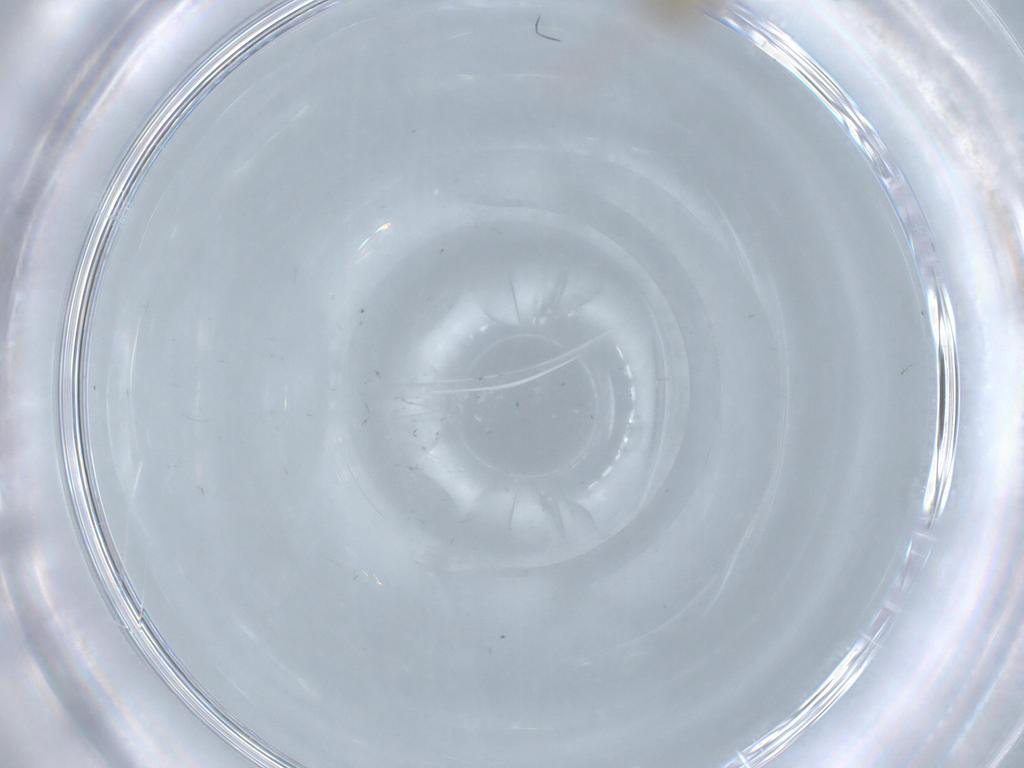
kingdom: Animalia
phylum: Arthropoda
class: Insecta
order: Diptera
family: Chironomidae
